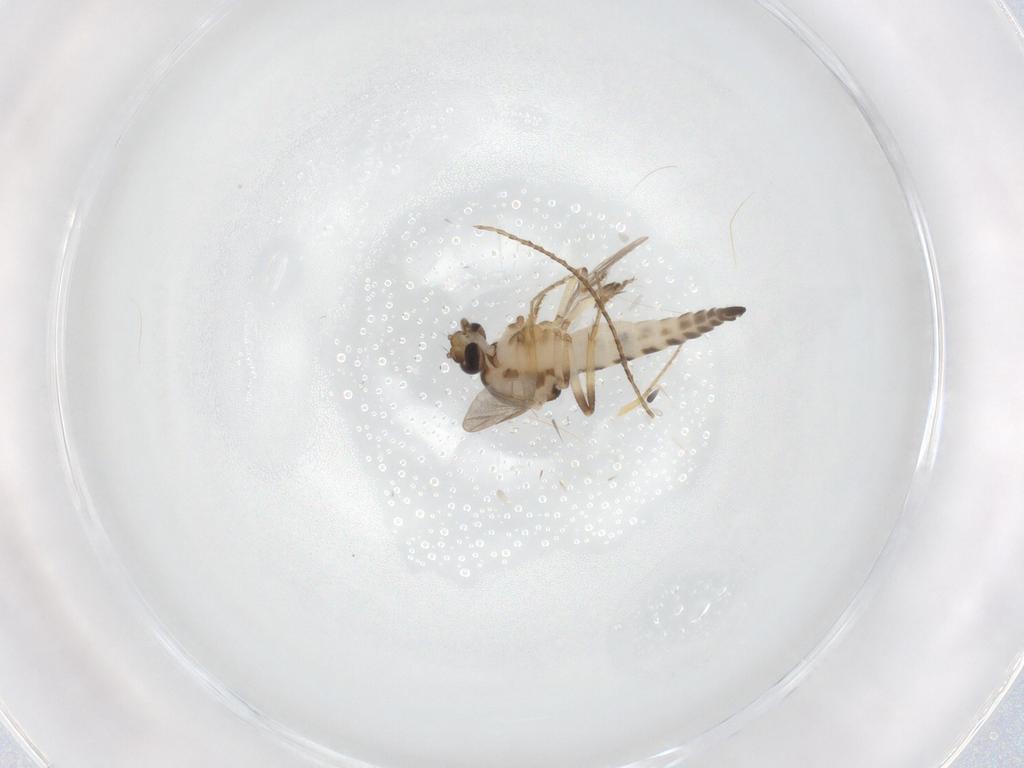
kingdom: Animalia
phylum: Arthropoda
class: Insecta
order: Diptera
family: Ceratopogonidae
